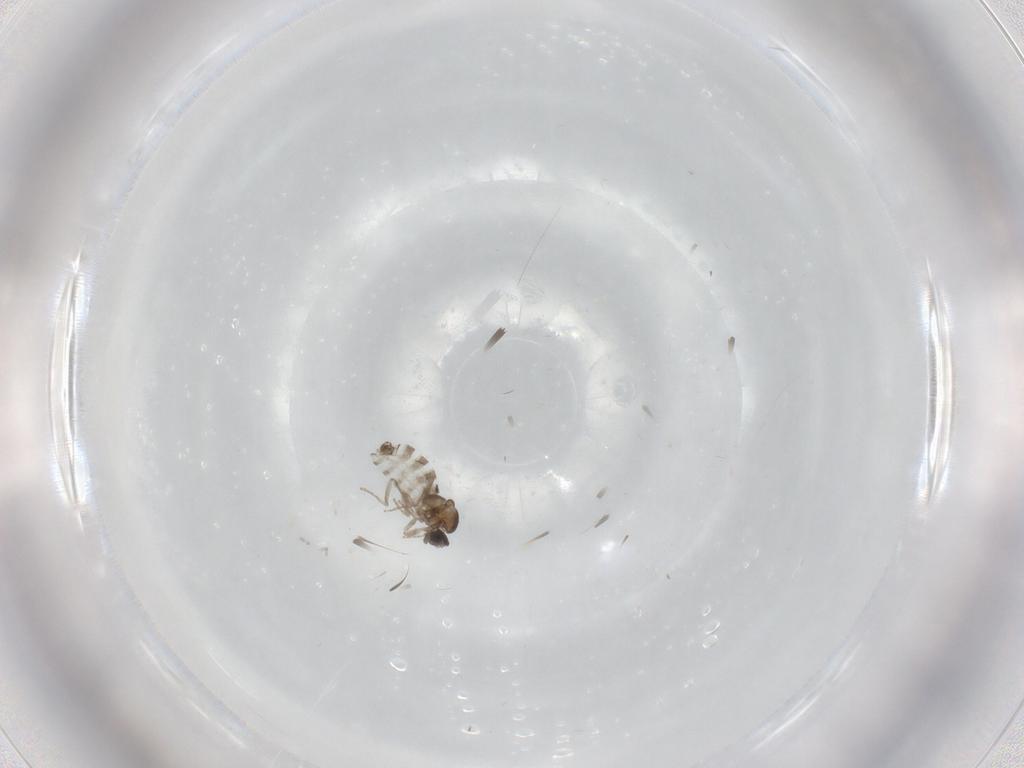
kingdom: Animalia
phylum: Arthropoda
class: Insecta
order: Diptera
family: Cecidomyiidae
